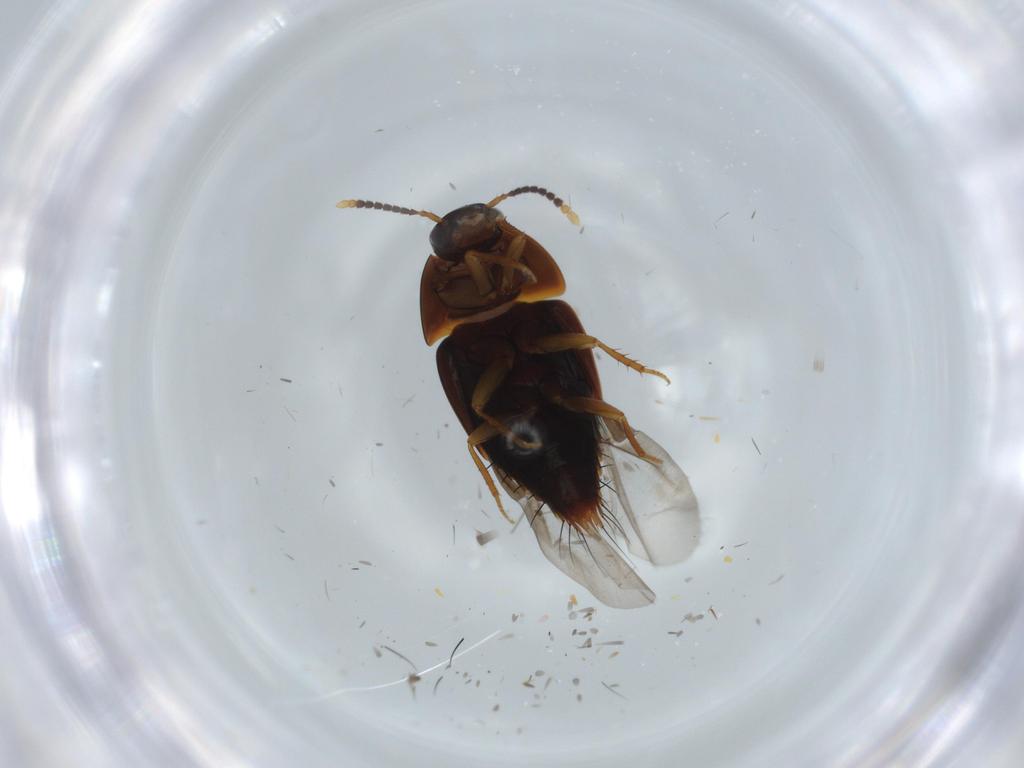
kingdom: Animalia
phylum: Arthropoda
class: Insecta
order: Coleoptera
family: Staphylinidae
